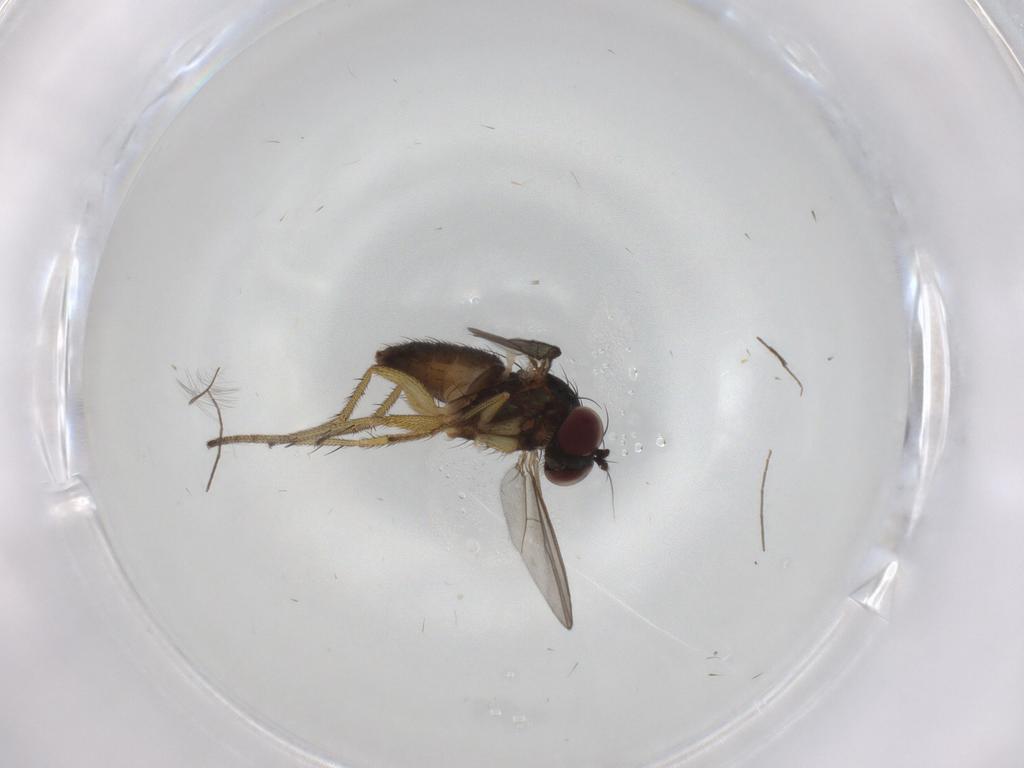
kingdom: Animalia
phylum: Arthropoda
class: Insecta
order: Diptera
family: Chironomidae
